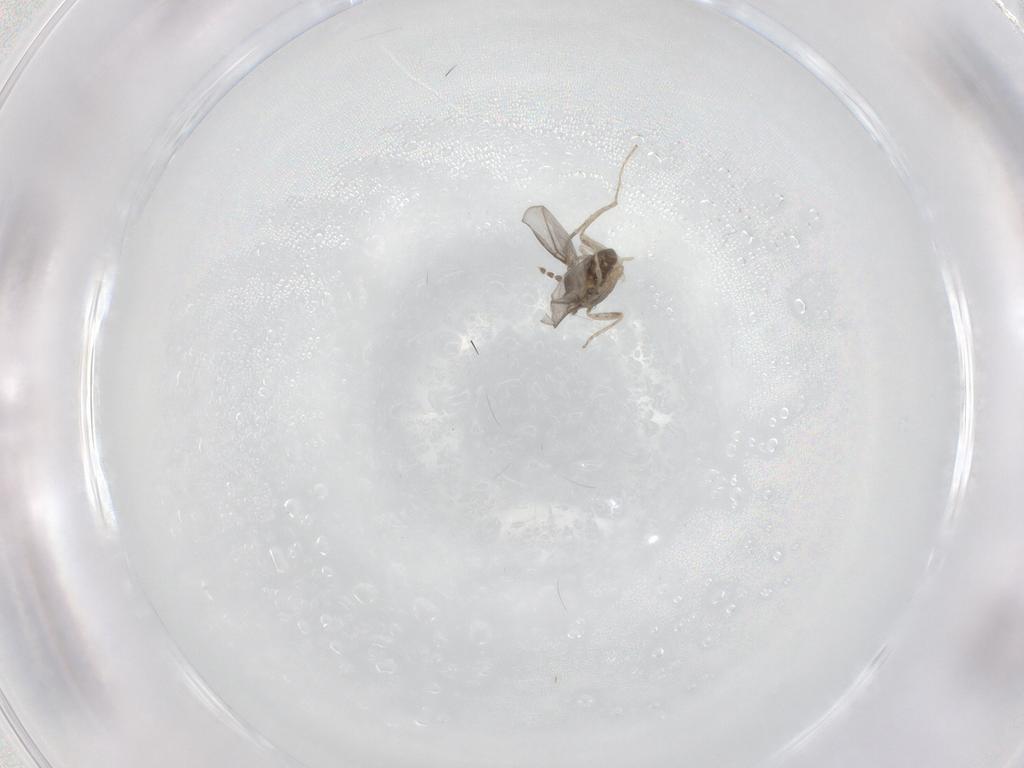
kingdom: Animalia
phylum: Arthropoda
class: Insecta
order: Diptera
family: Cecidomyiidae
